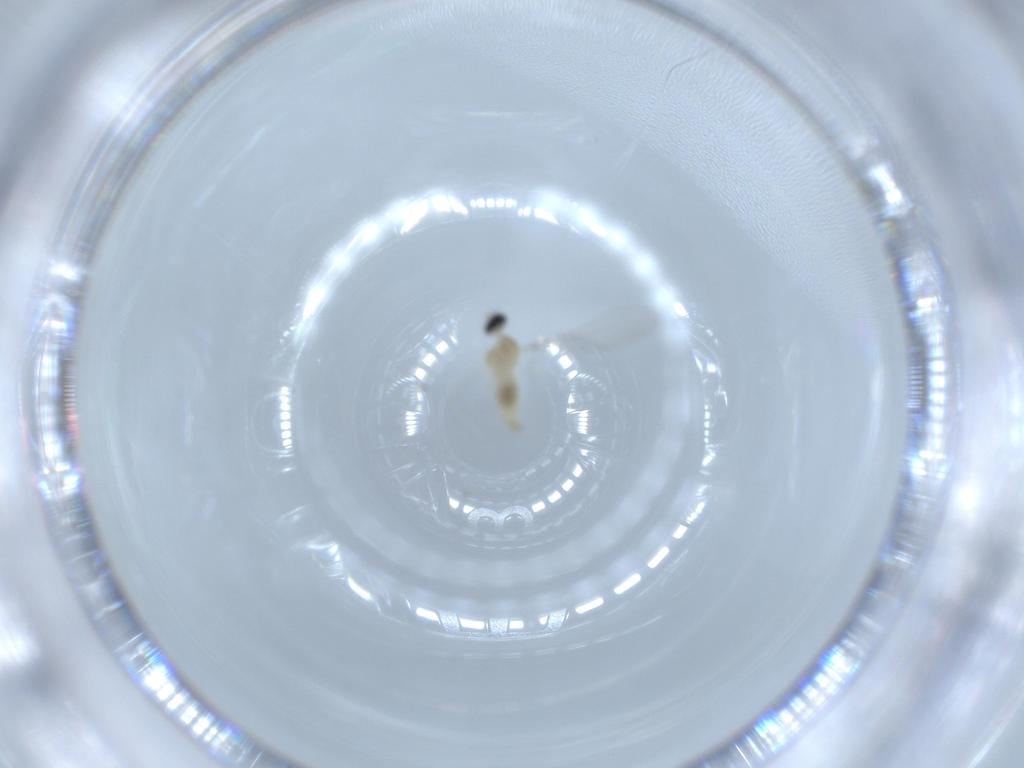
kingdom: Animalia
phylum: Arthropoda
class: Insecta
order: Diptera
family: Cecidomyiidae
